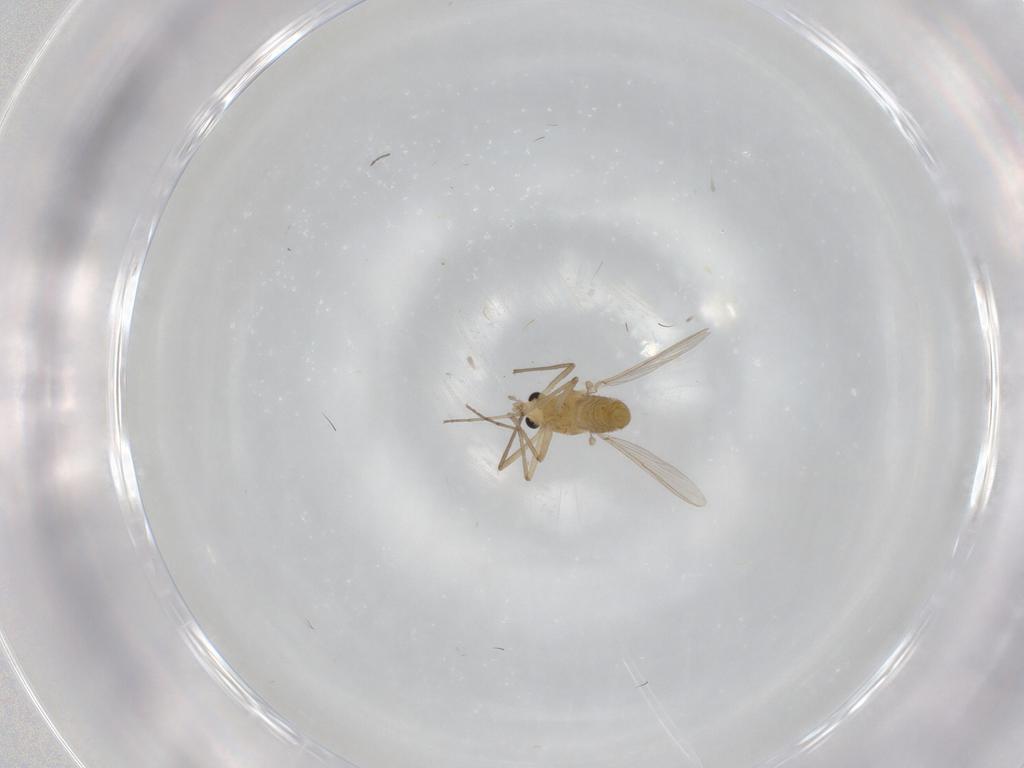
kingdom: Animalia
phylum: Arthropoda
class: Insecta
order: Diptera
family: Chironomidae
